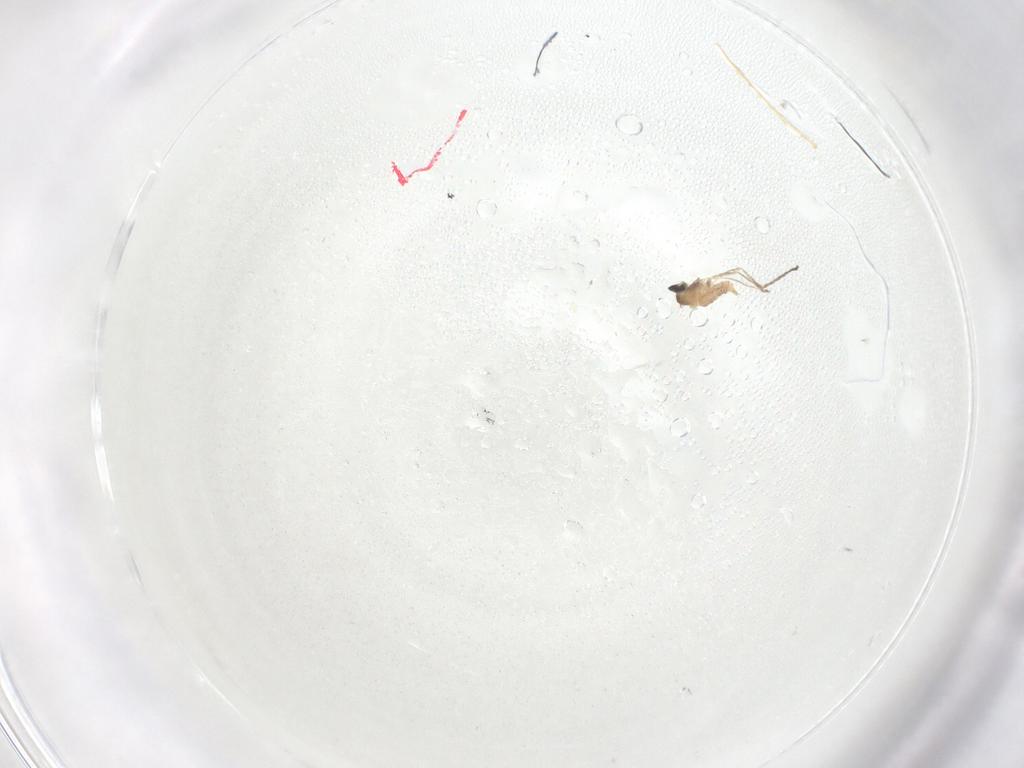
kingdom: Animalia
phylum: Arthropoda
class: Insecta
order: Diptera
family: Cecidomyiidae
